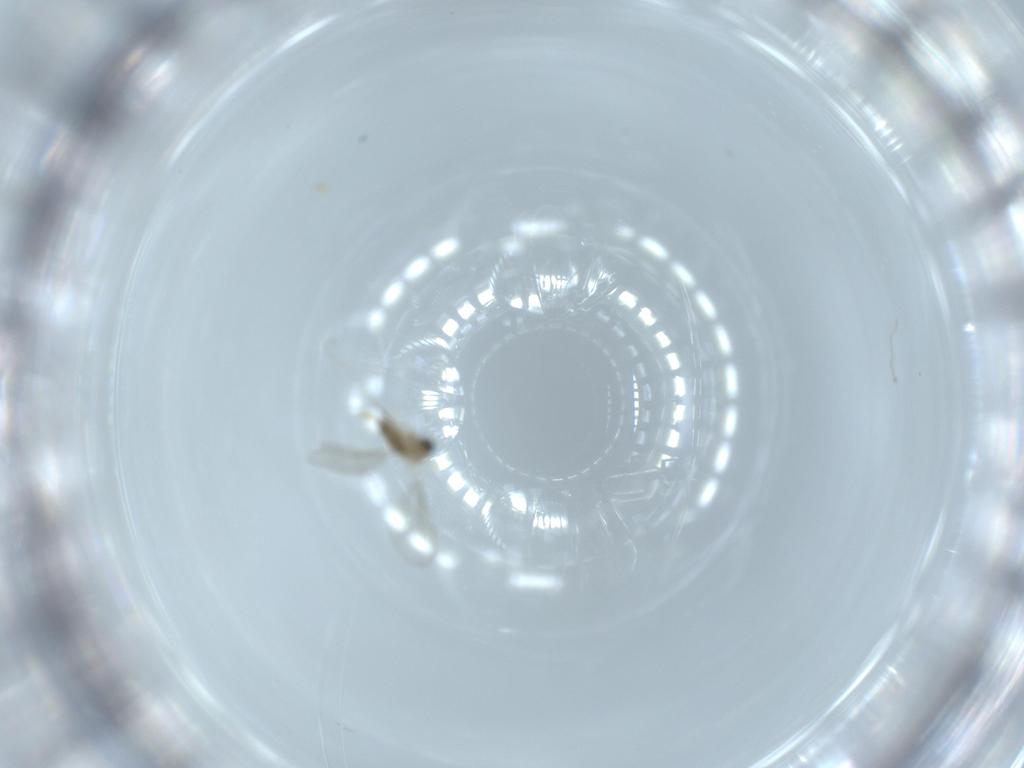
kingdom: Animalia
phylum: Arthropoda
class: Insecta
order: Diptera
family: Cecidomyiidae
